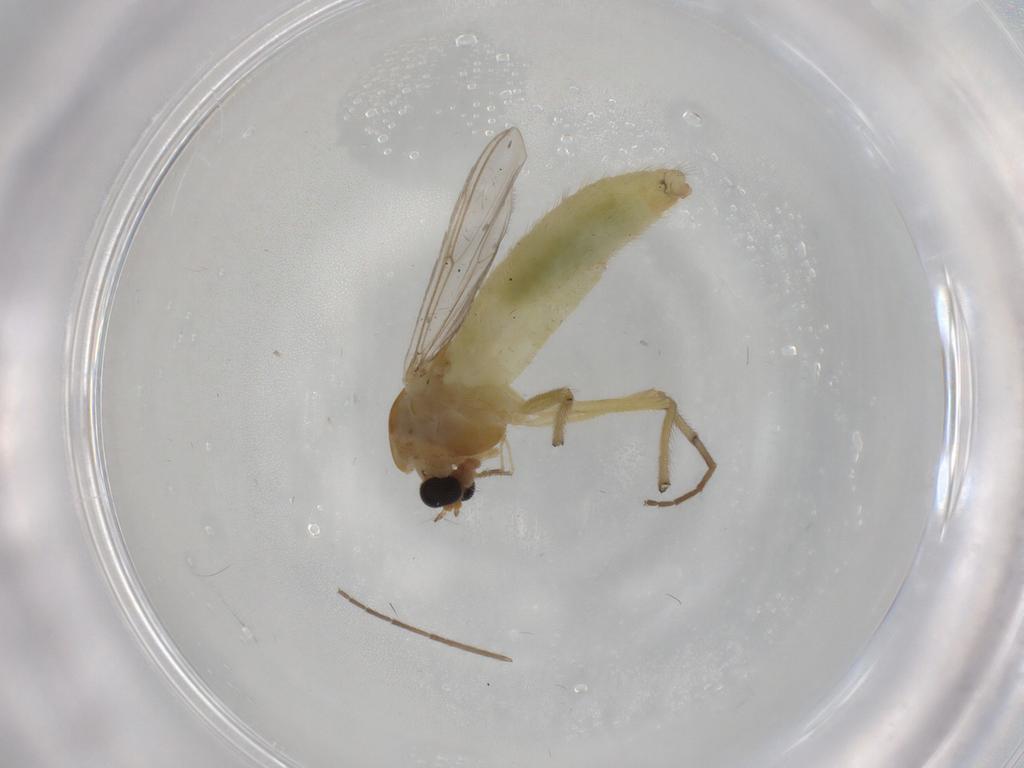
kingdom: Animalia
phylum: Arthropoda
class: Insecta
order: Diptera
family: Chironomidae
